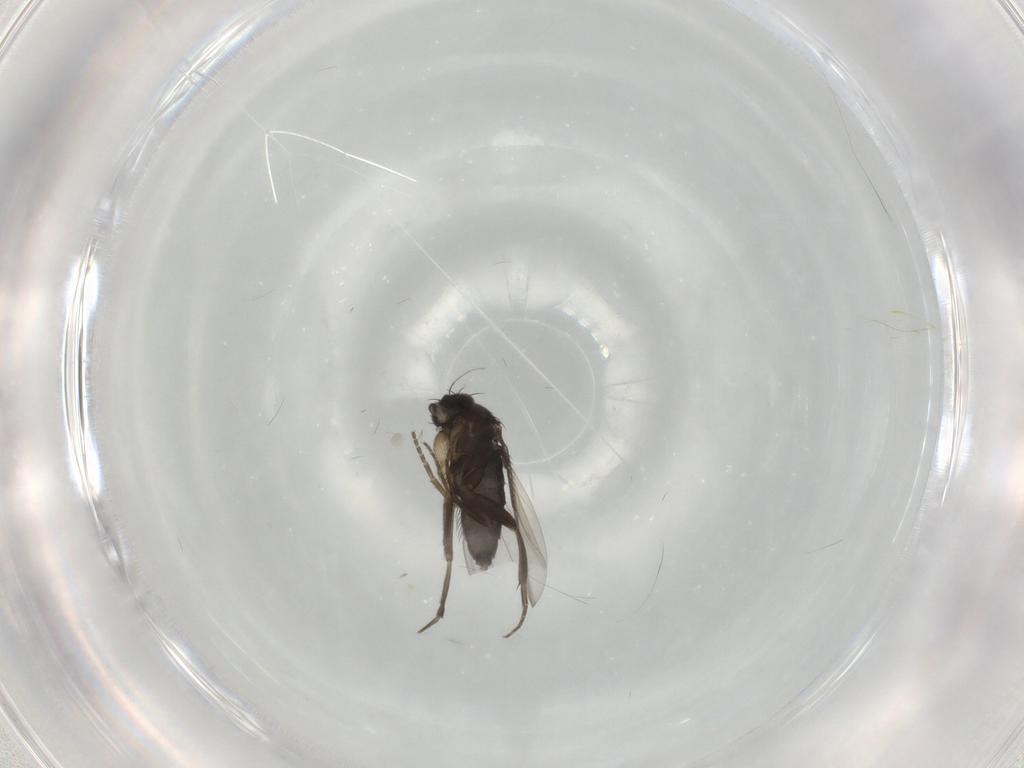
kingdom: Animalia
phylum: Arthropoda
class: Insecta
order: Diptera
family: Phoridae
